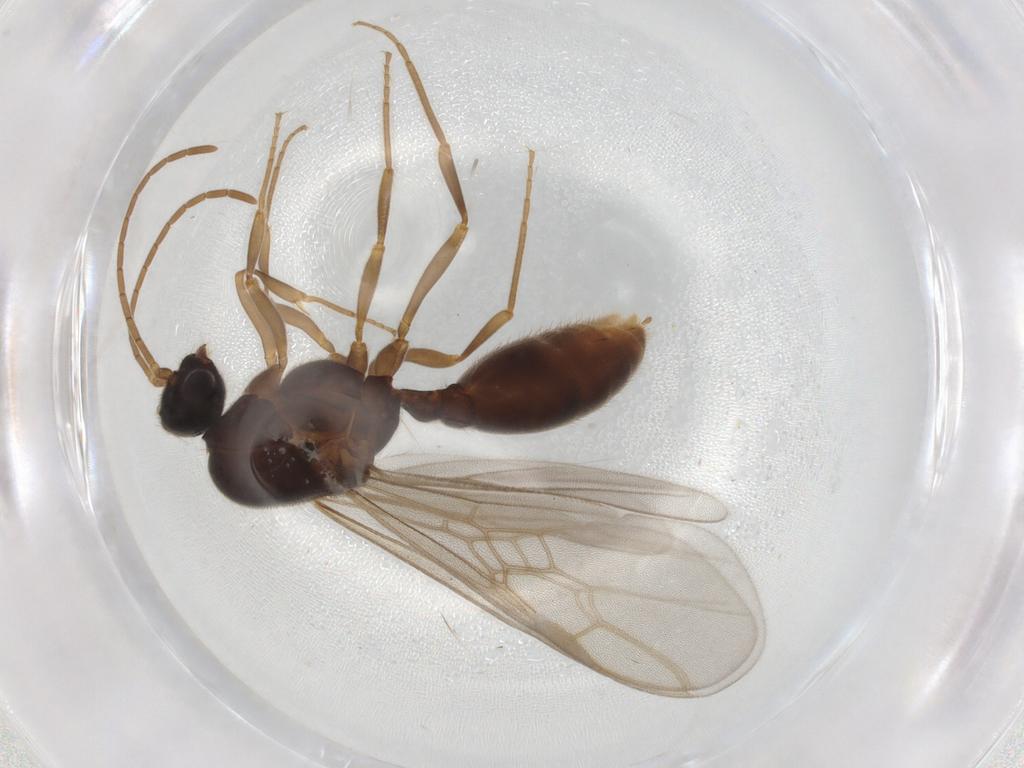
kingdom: Animalia
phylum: Arthropoda
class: Insecta
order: Hymenoptera
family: Formicidae
